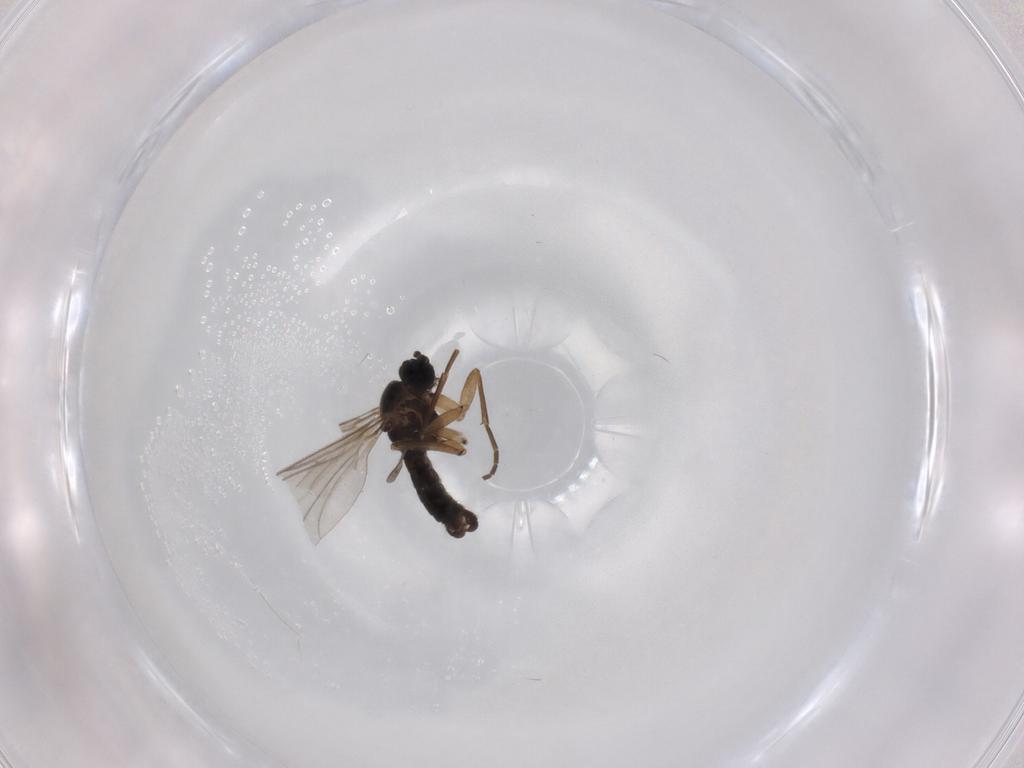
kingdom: Animalia
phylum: Arthropoda
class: Insecta
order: Diptera
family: Sciaridae
